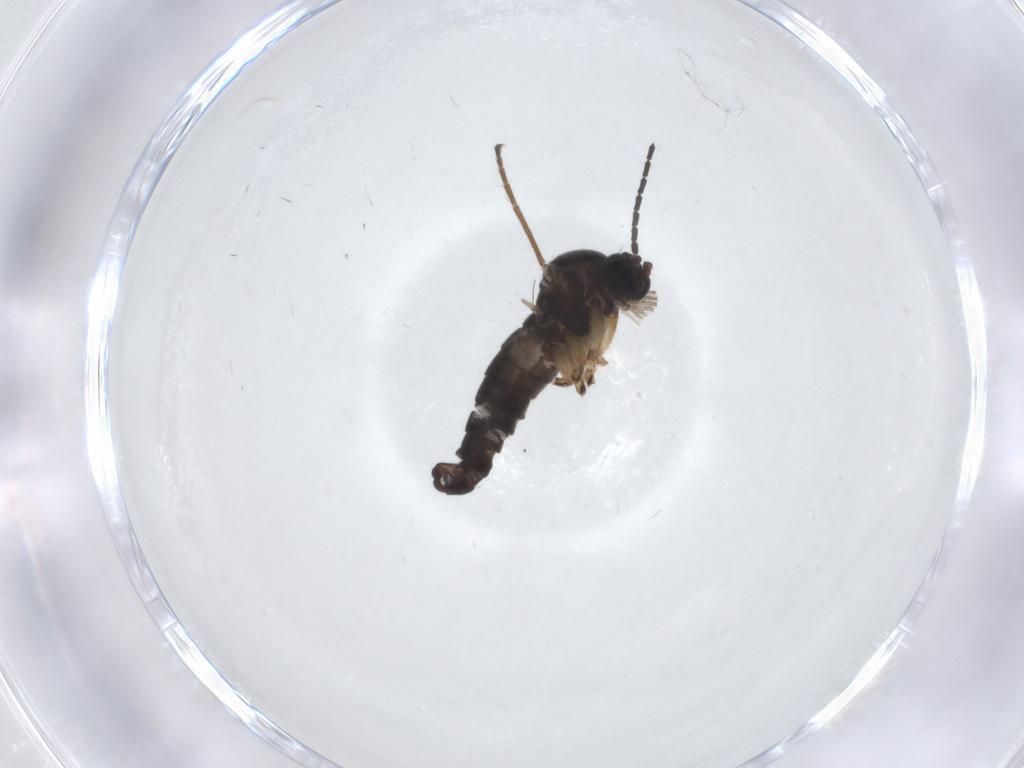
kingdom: Animalia
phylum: Arthropoda
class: Insecta
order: Diptera
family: Sciaridae
